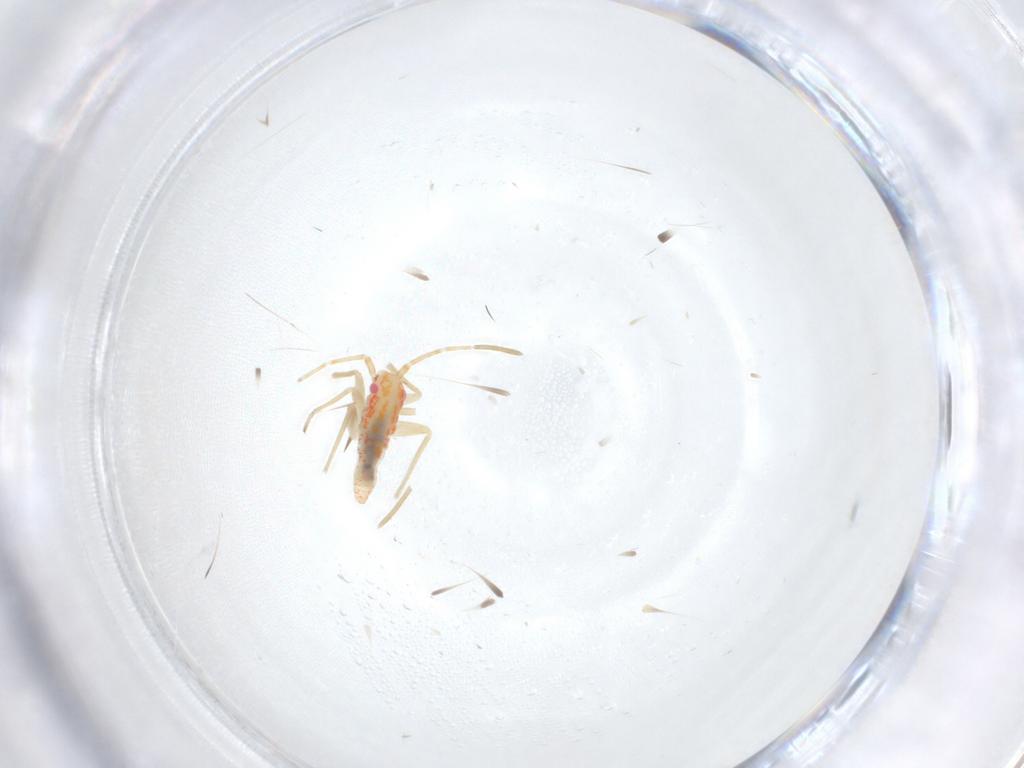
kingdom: Animalia
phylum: Arthropoda
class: Insecta
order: Hemiptera
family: Miridae
